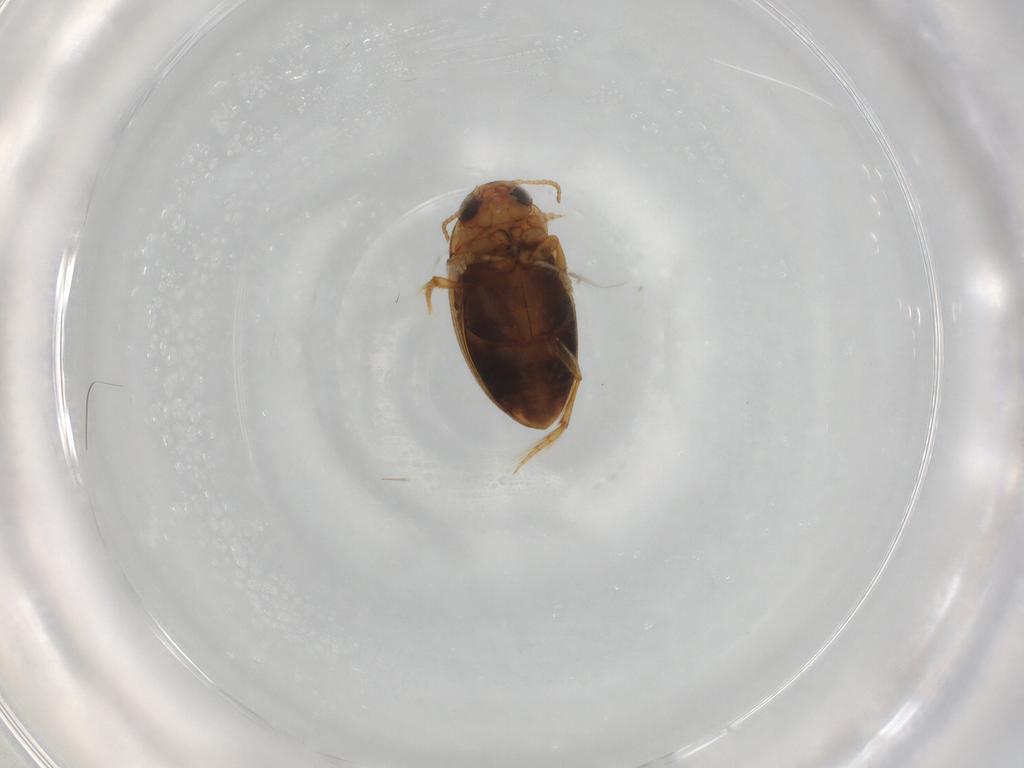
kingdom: Animalia
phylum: Arthropoda
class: Insecta
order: Coleoptera
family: Dytiscidae
